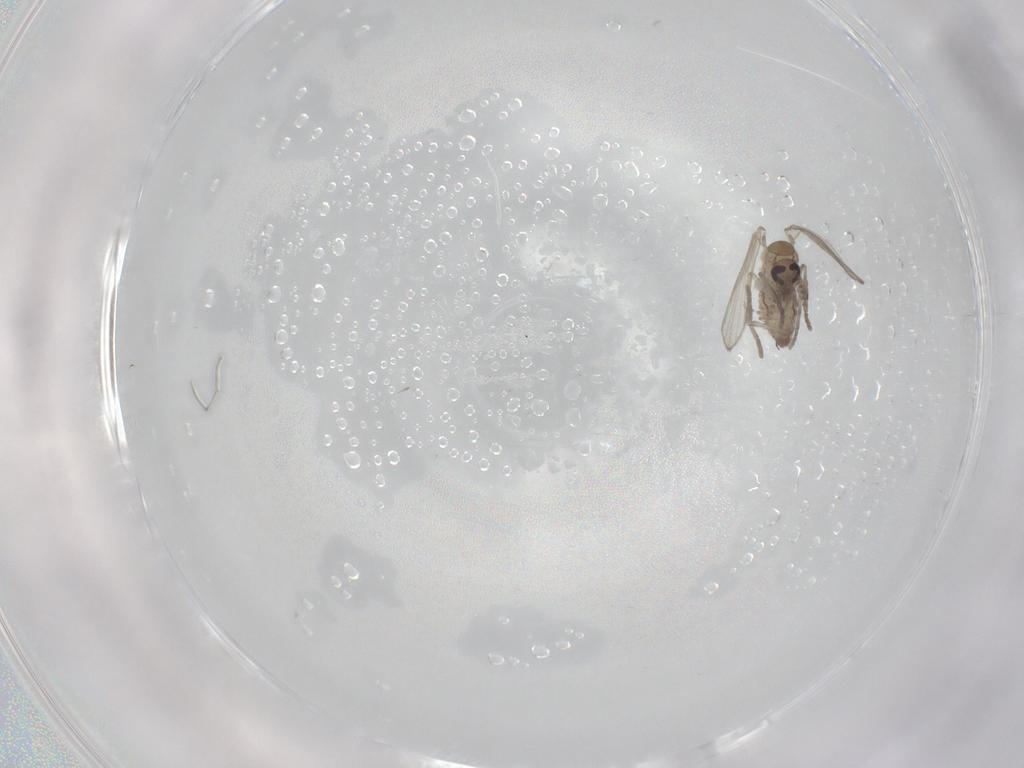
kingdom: Animalia
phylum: Arthropoda
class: Insecta
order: Diptera
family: Psychodidae
